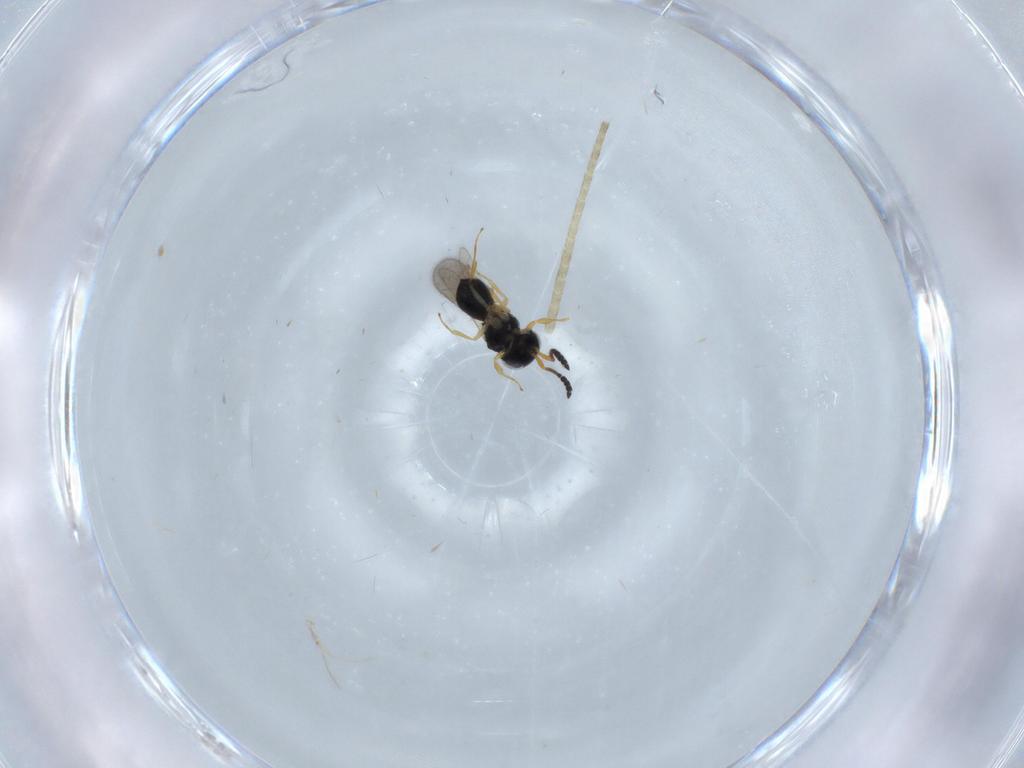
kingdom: Animalia
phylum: Arthropoda
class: Insecta
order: Hymenoptera
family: Scelionidae
